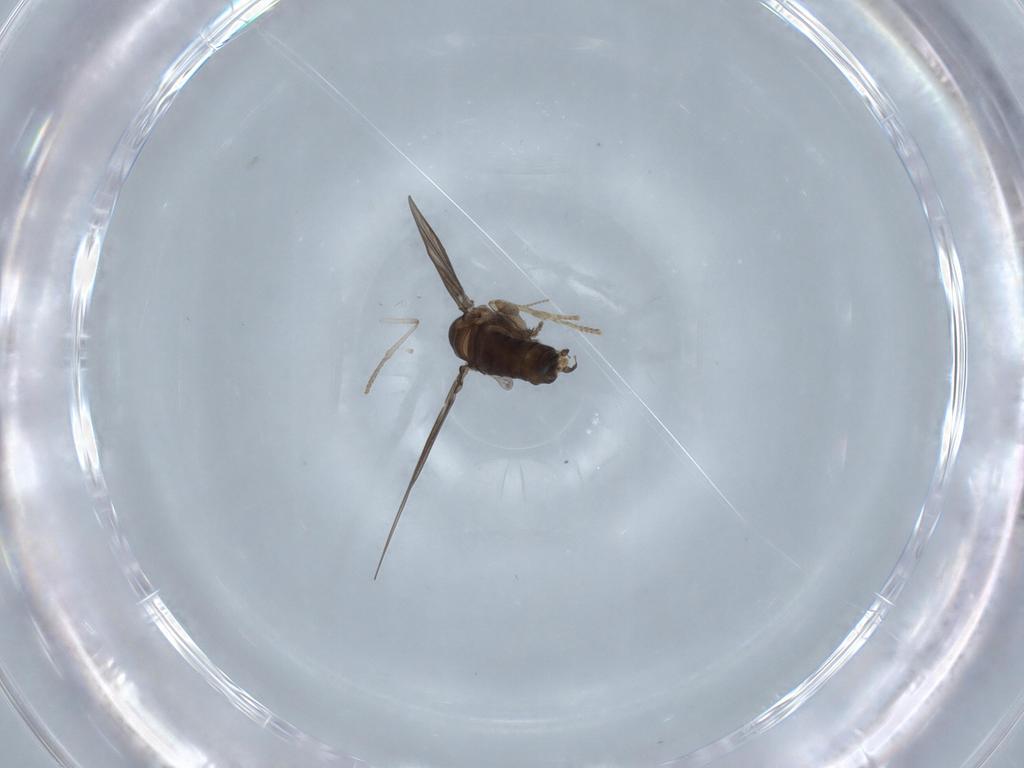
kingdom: Animalia
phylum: Arthropoda
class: Insecta
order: Diptera
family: Psychodidae
